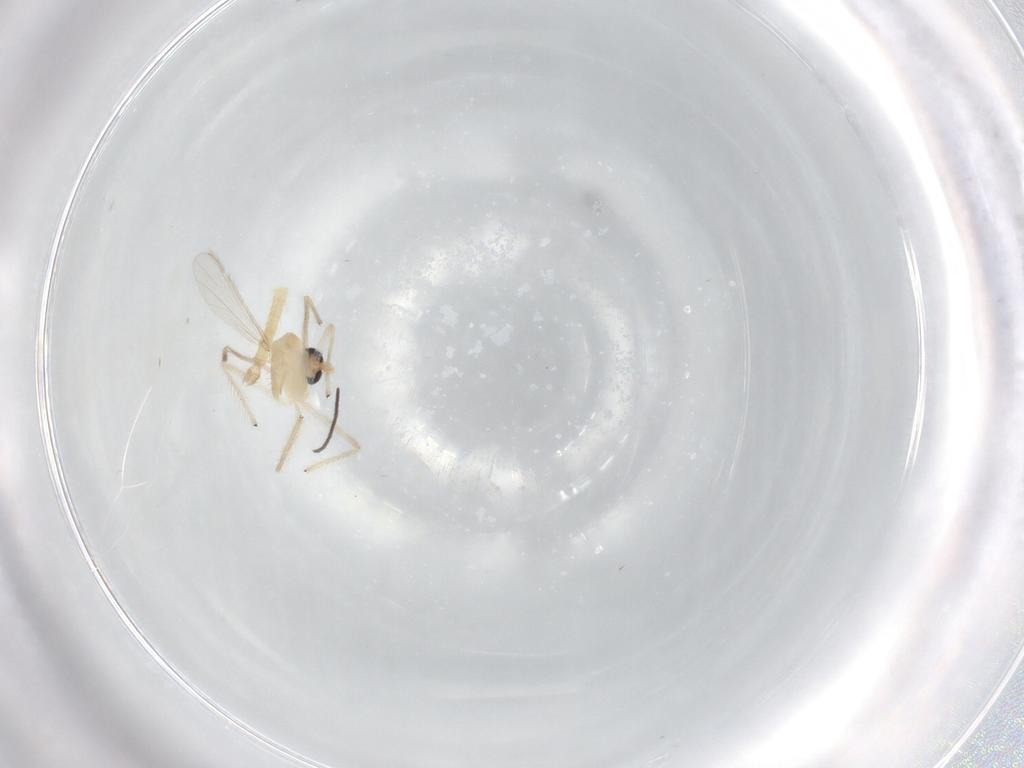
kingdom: Animalia
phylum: Arthropoda
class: Insecta
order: Diptera
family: Chironomidae
